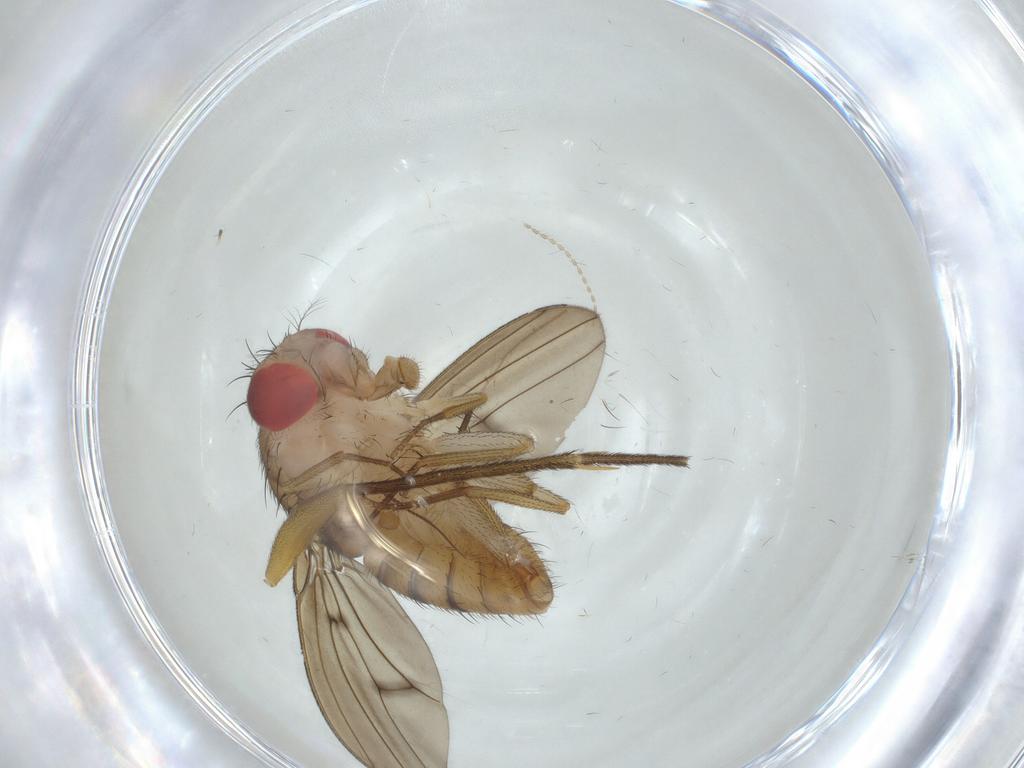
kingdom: Animalia
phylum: Arthropoda
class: Insecta
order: Diptera
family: Drosophilidae
